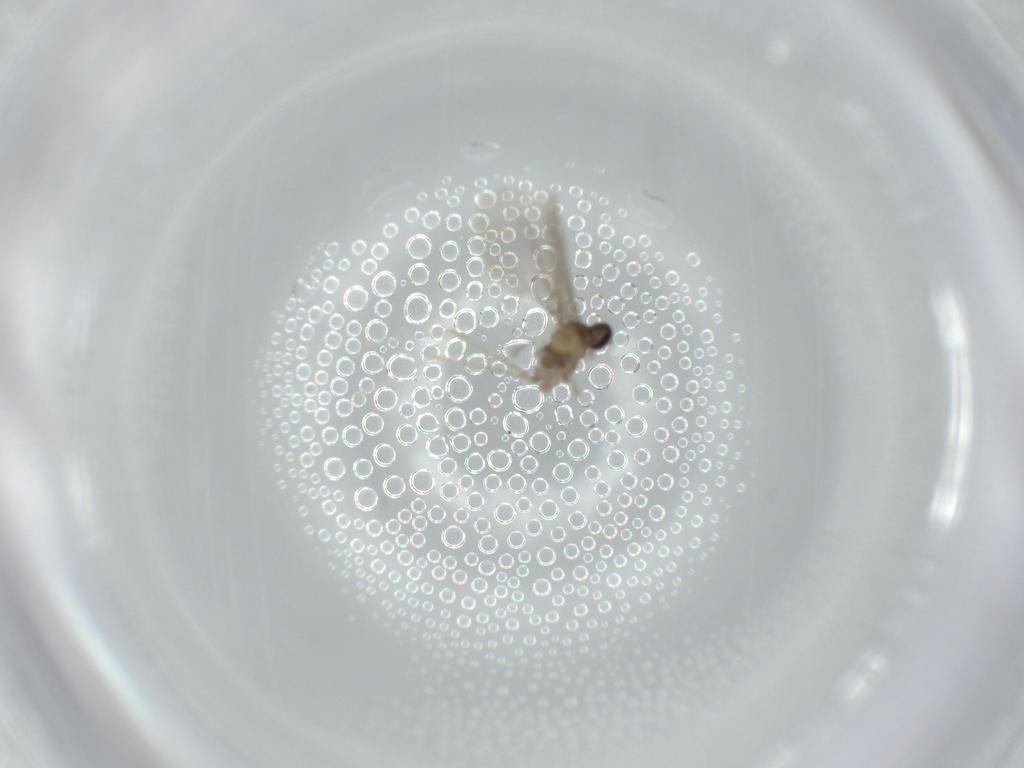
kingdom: Animalia
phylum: Arthropoda
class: Insecta
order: Diptera
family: Cecidomyiidae
